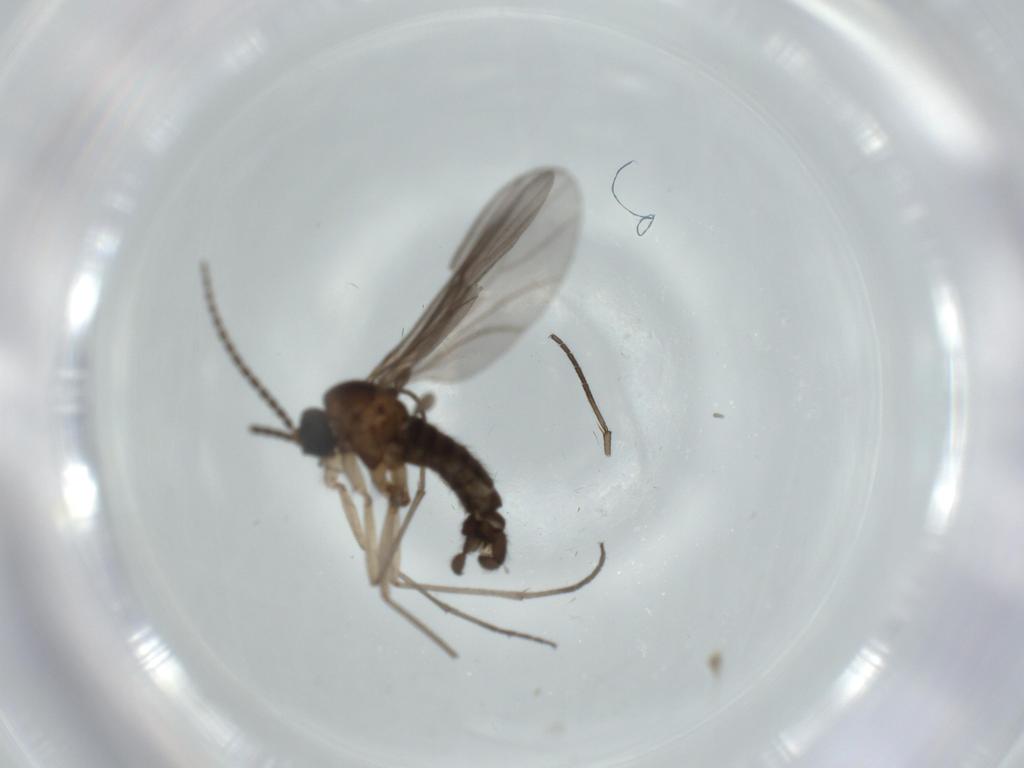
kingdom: Animalia
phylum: Arthropoda
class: Insecta
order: Diptera
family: Sciaridae
